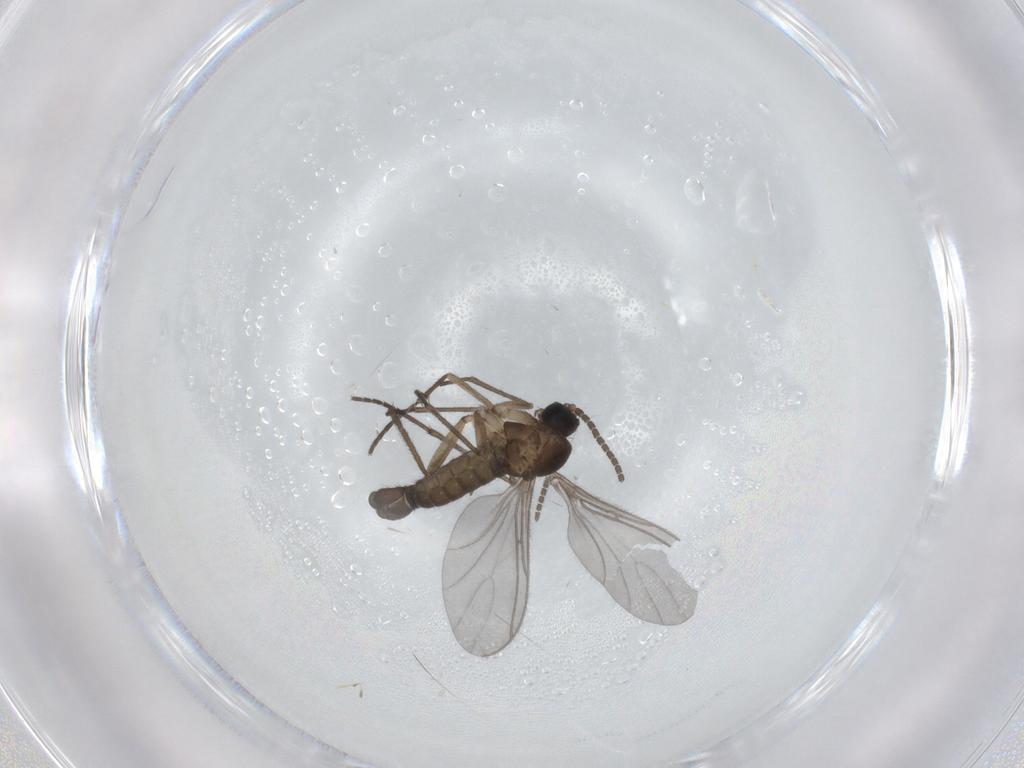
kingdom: Animalia
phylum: Arthropoda
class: Insecta
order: Diptera
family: Sciaridae
